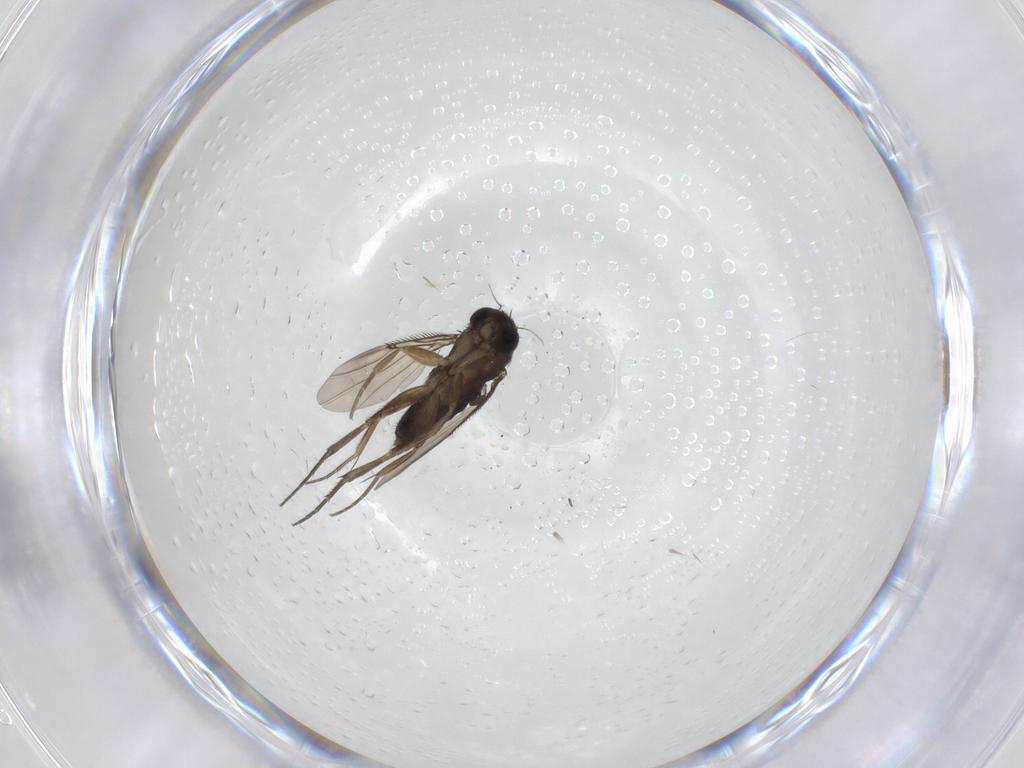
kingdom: Animalia
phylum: Arthropoda
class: Insecta
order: Diptera
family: Phoridae
